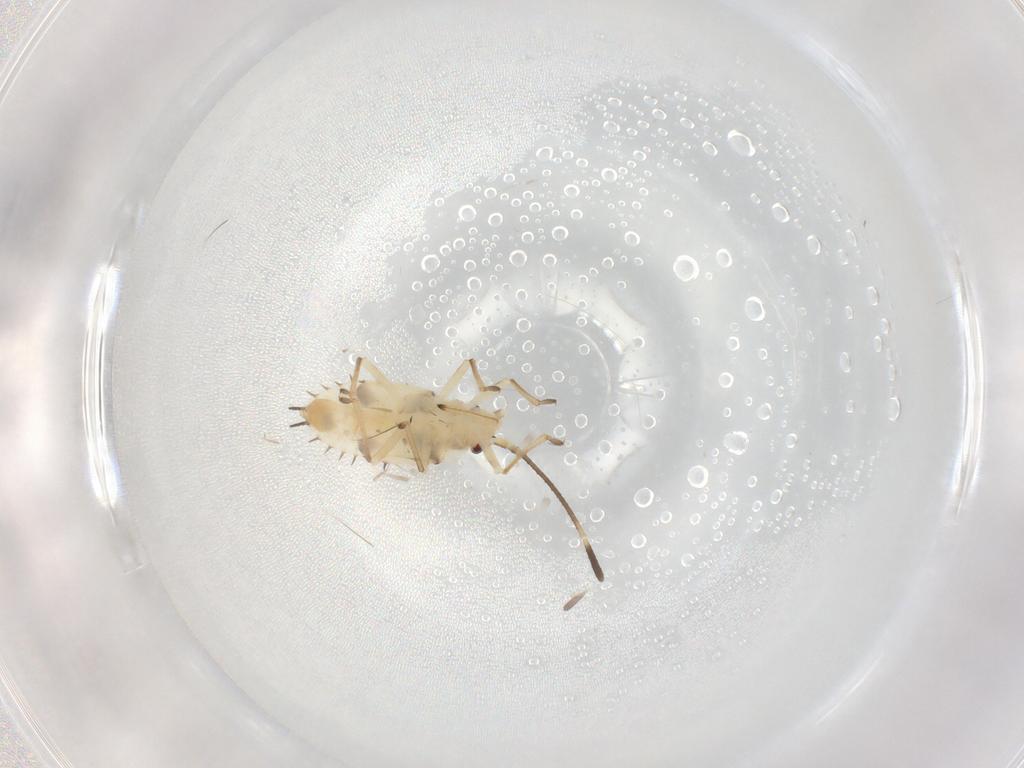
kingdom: Animalia
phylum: Arthropoda
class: Insecta
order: Hemiptera
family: Tingidae
